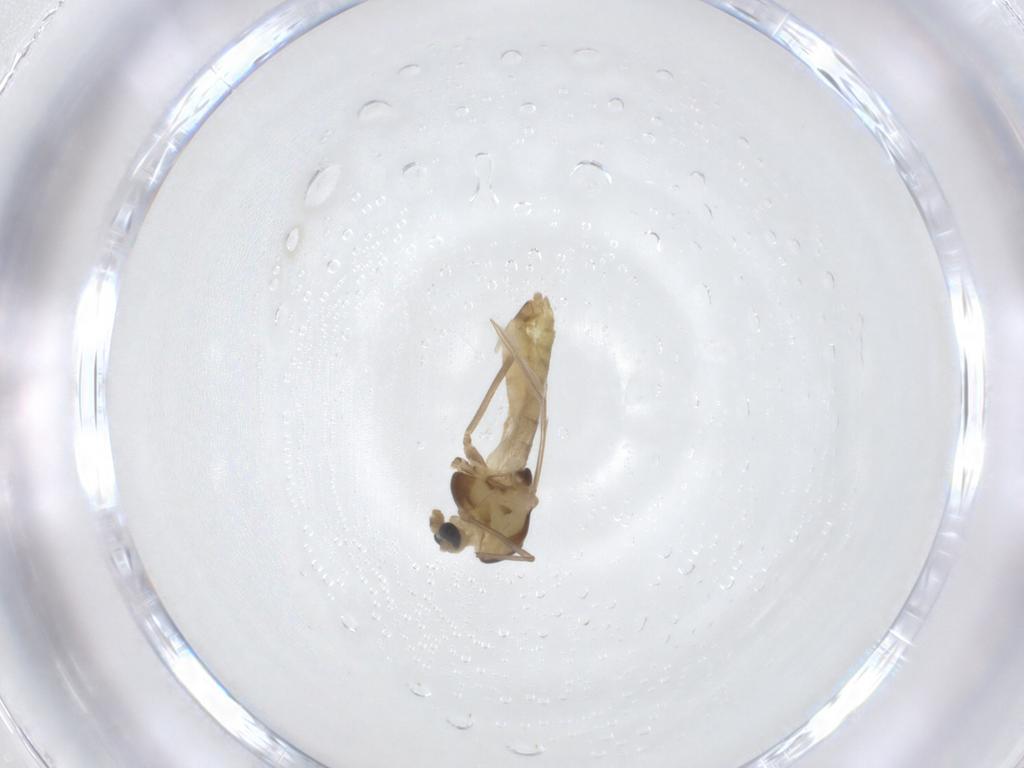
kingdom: Animalia
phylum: Arthropoda
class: Insecta
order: Diptera
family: Chironomidae
